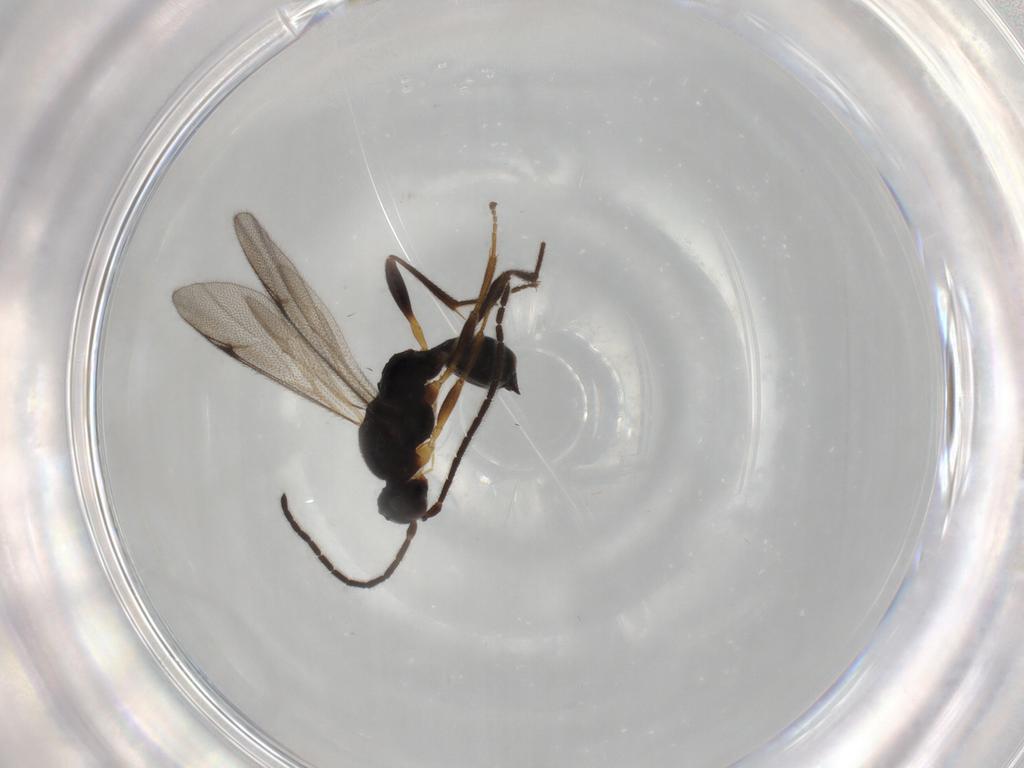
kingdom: Animalia
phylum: Arthropoda
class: Insecta
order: Hymenoptera
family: Proctotrupidae
